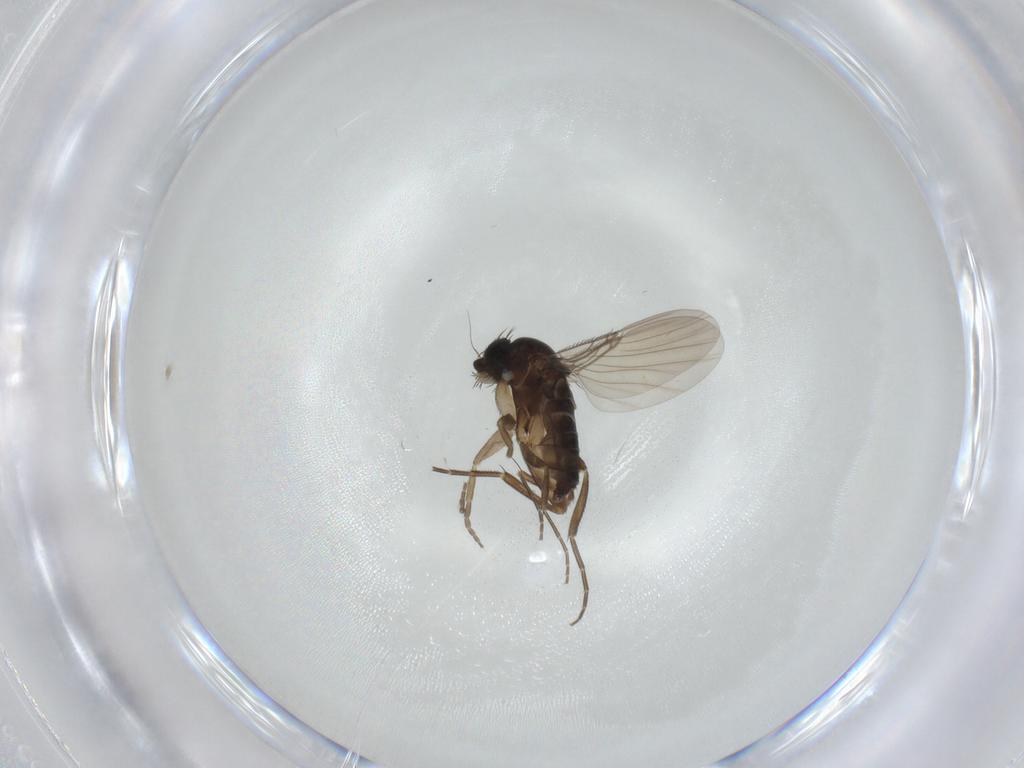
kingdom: Animalia
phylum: Arthropoda
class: Insecta
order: Diptera
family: Phoridae
